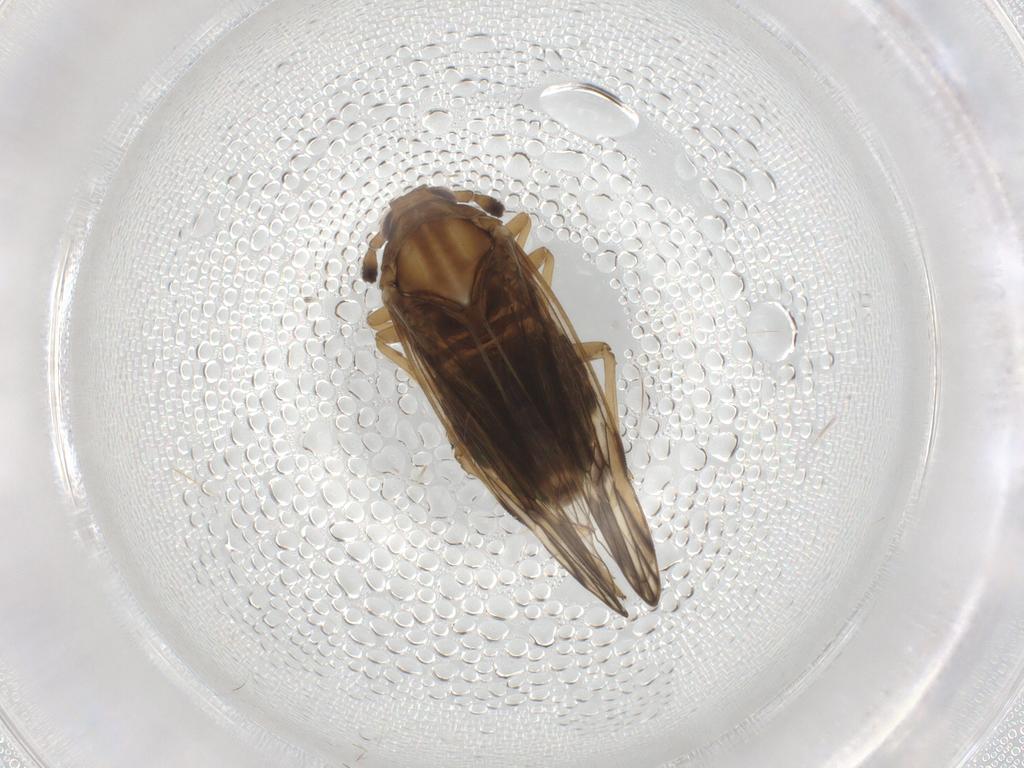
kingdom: Animalia
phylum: Arthropoda
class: Insecta
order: Hemiptera
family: Delphacidae
